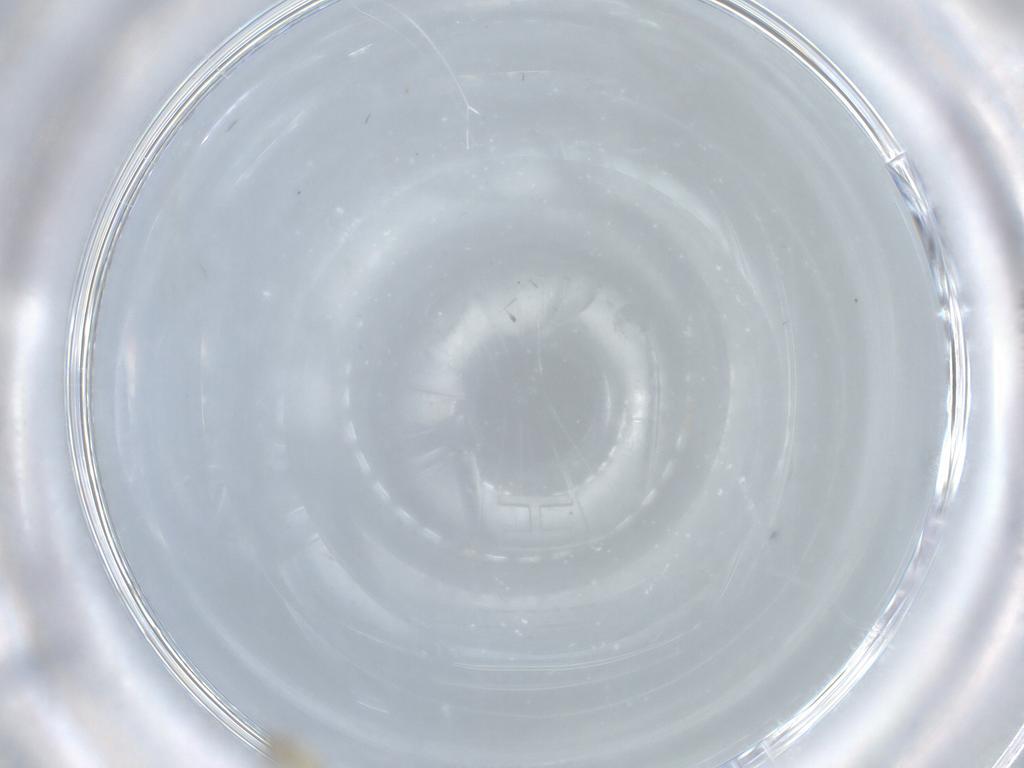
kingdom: Animalia
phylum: Arthropoda
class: Insecta
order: Diptera
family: Cecidomyiidae
